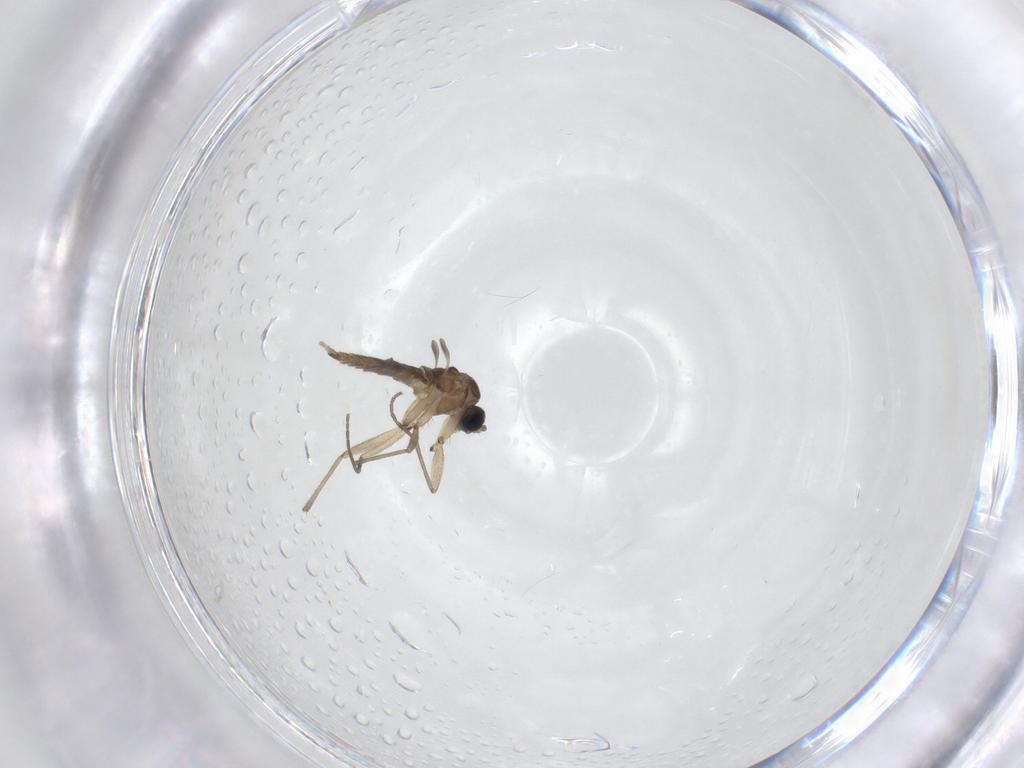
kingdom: Animalia
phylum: Arthropoda
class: Insecta
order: Diptera
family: Sciaridae
